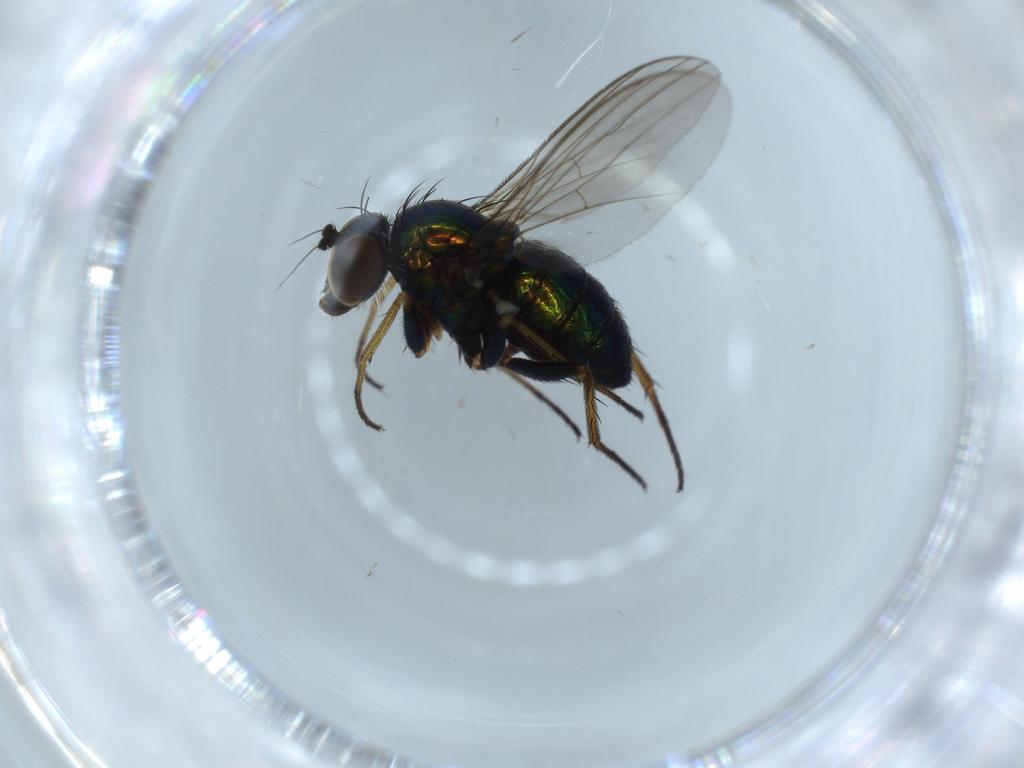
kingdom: Animalia
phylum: Arthropoda
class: Insecta
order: Diptera
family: Dolichopodidae
